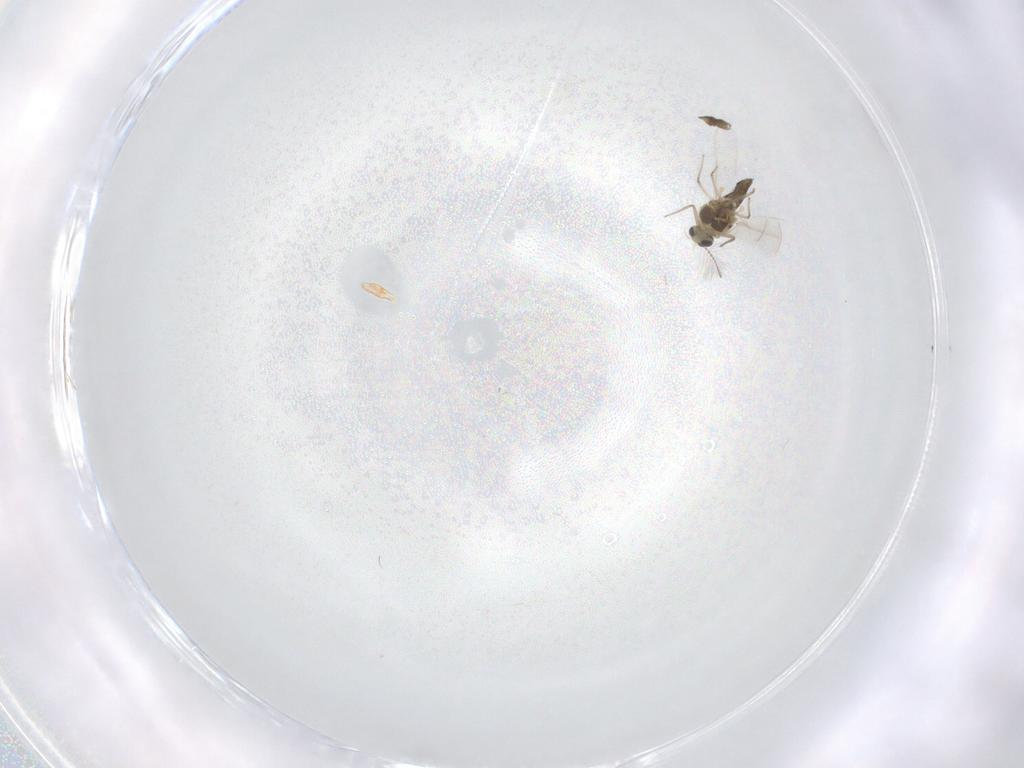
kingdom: Animalia
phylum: Arthropoda
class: Insecta
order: Diptera
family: Chironomidae
